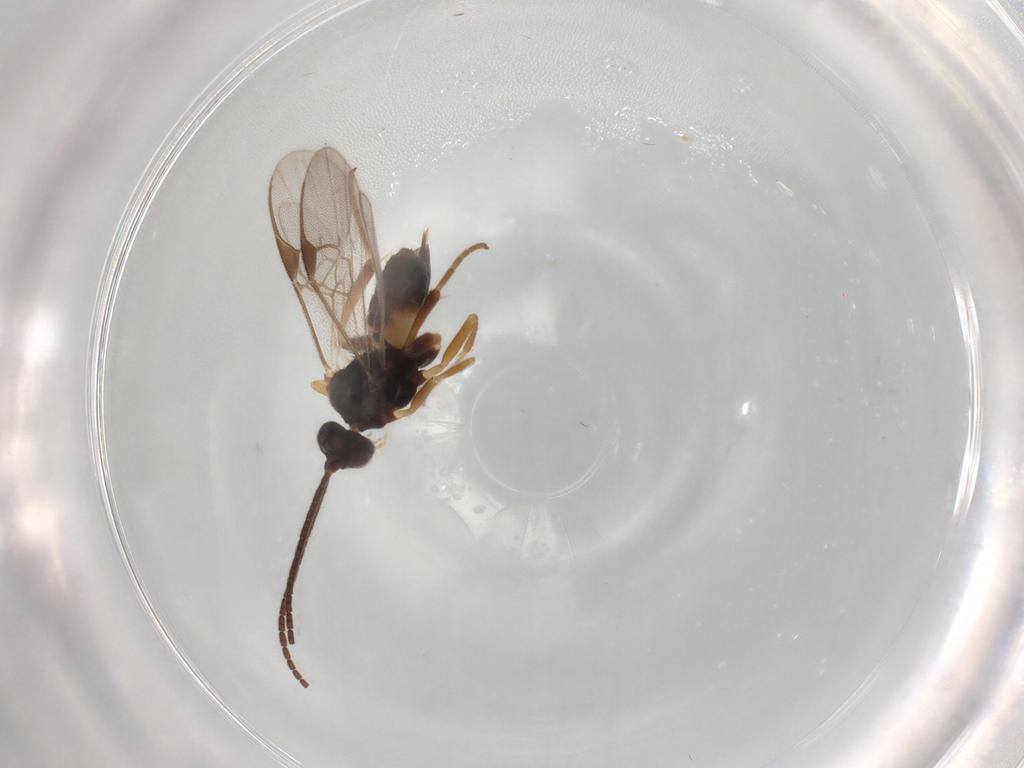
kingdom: Animalia
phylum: Arthropoda
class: Insecta
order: Hymenoptera
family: Braconidae
